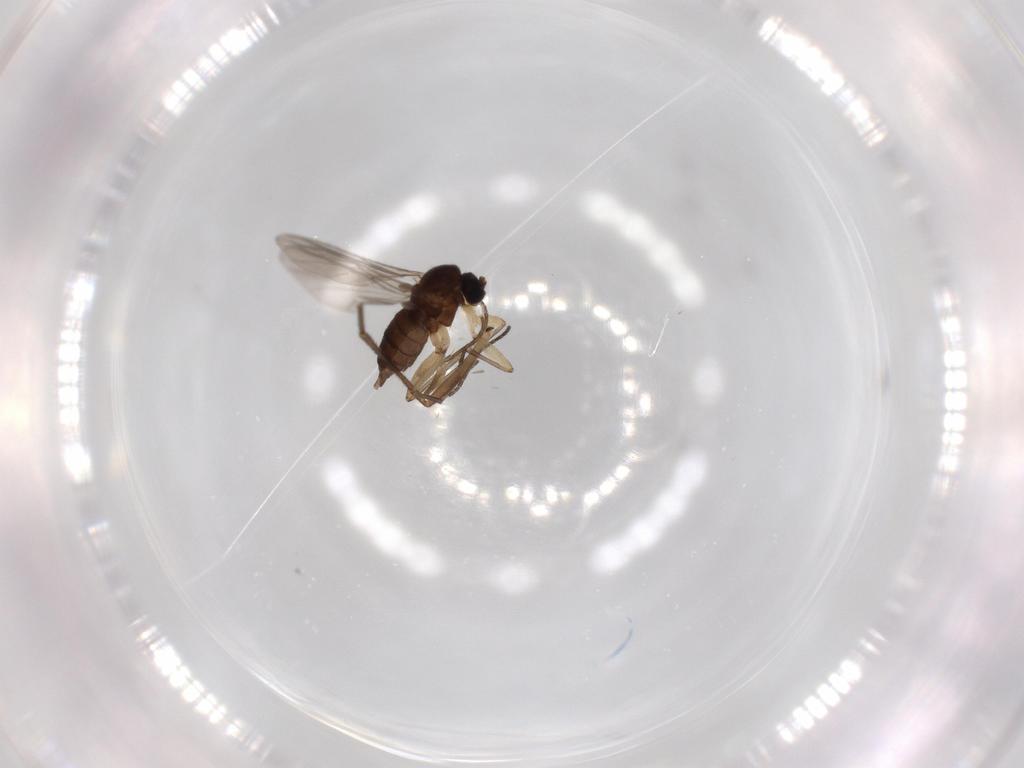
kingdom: Animalia
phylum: Arthropoda
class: Insecta
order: Diptera
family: Sciaridae
